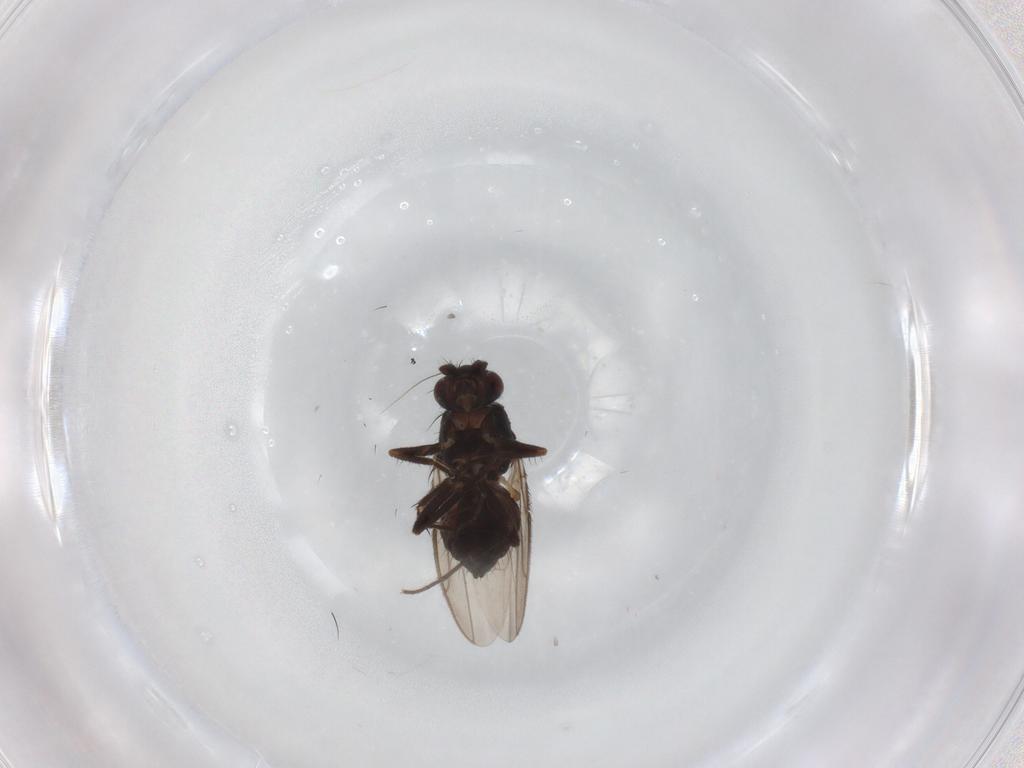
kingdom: Animalia
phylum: Arthropoda
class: Insecta
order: Diptera
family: Sphaeroceridae
